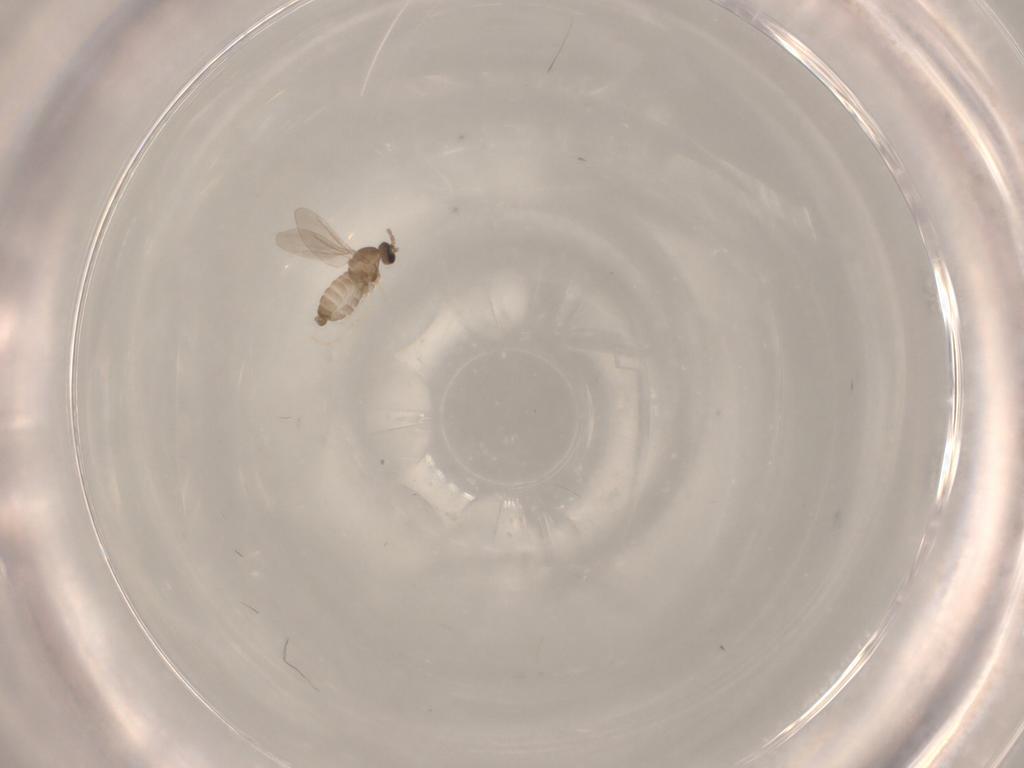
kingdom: Animalia
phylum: Arthropoda
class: Insecta
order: Diptera
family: Cecidomyiidae
